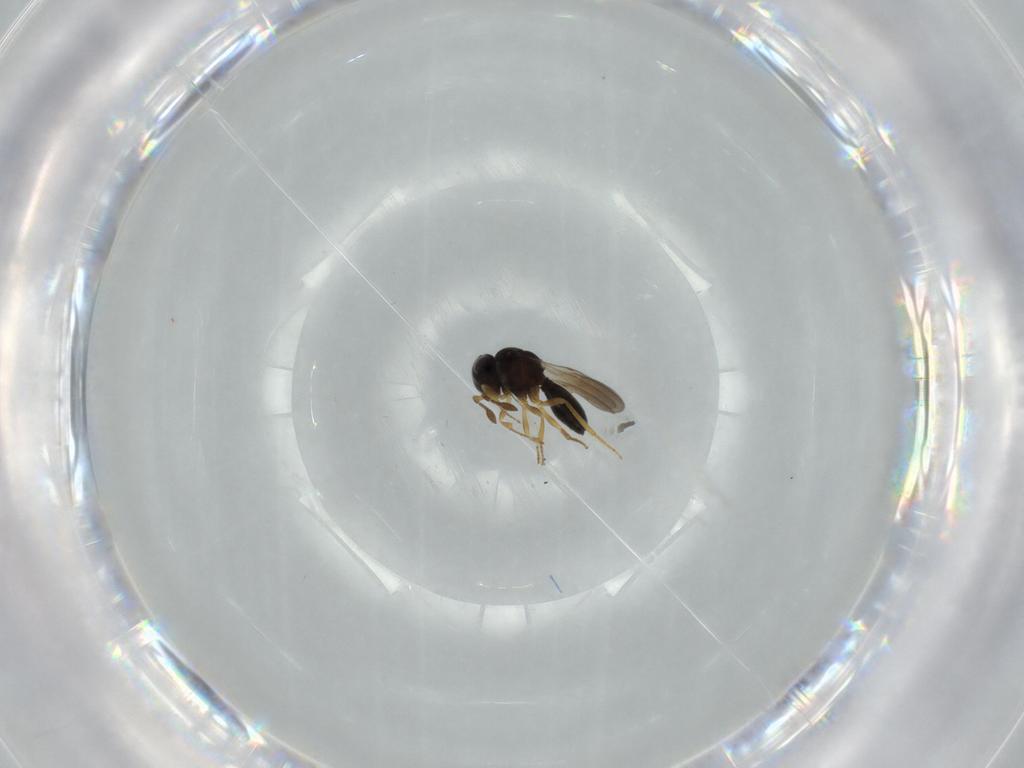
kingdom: Animalia
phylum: Arthropoda
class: Insecta
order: Hymenoptera
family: Scelionidae
